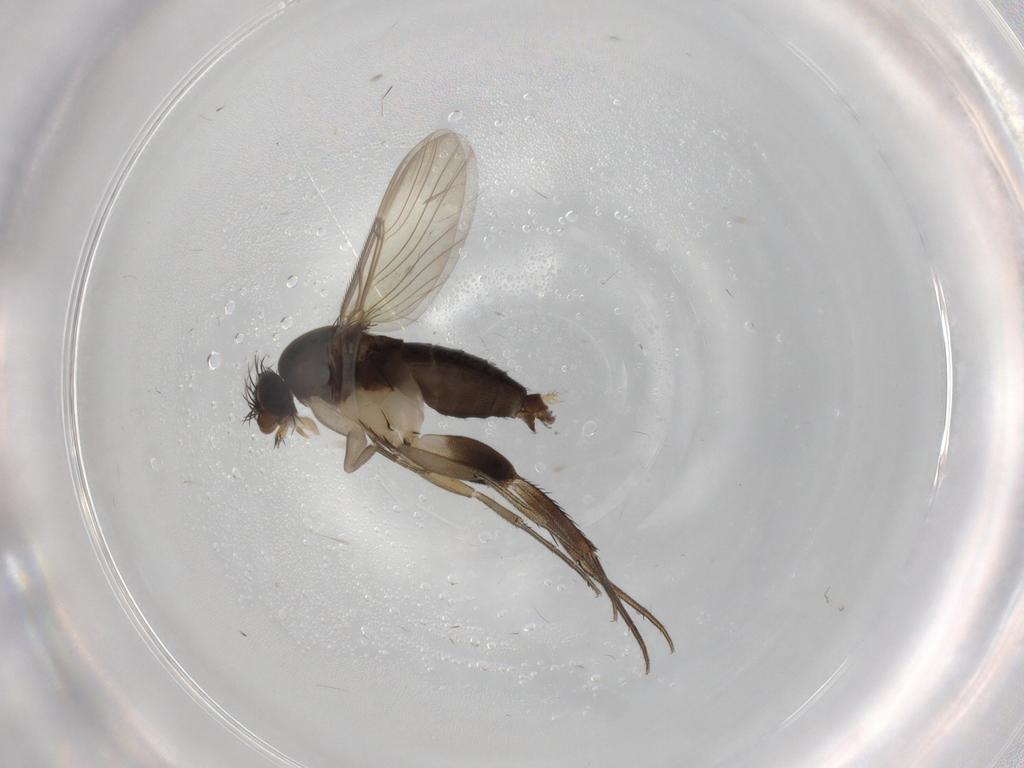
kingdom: Animalia
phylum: Arthropoda
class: Insecta
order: Diptera
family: Phoridae
